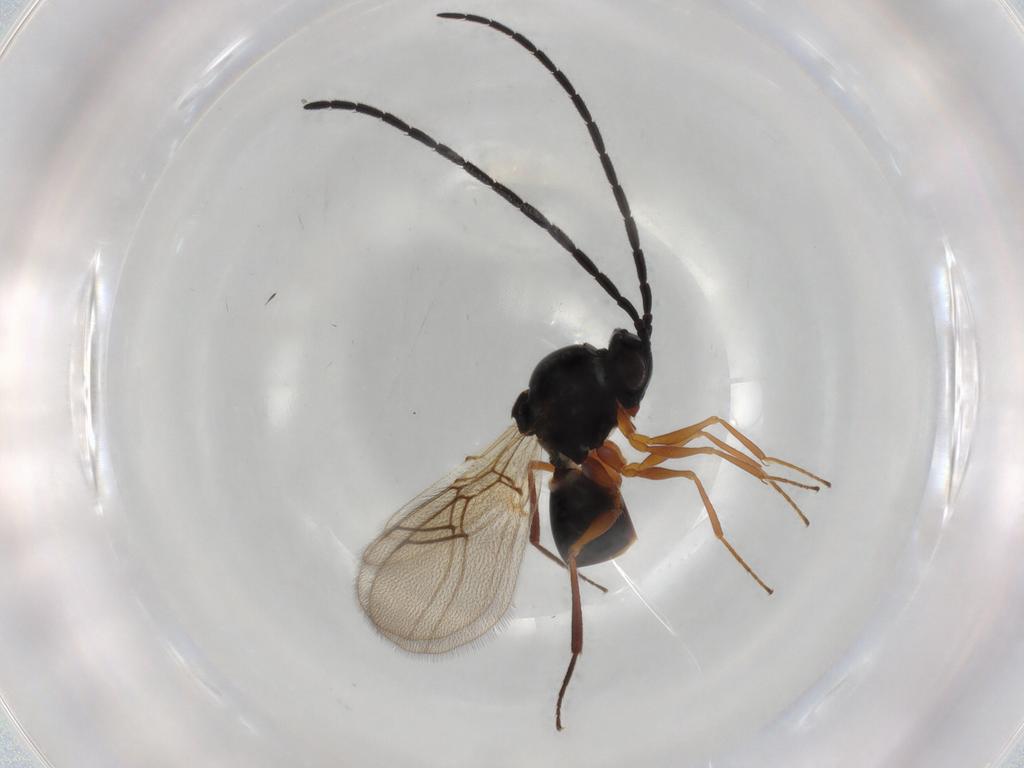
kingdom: Animalia
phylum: Arthropoda
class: Insecta
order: Hymenoptera
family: Figitidae
